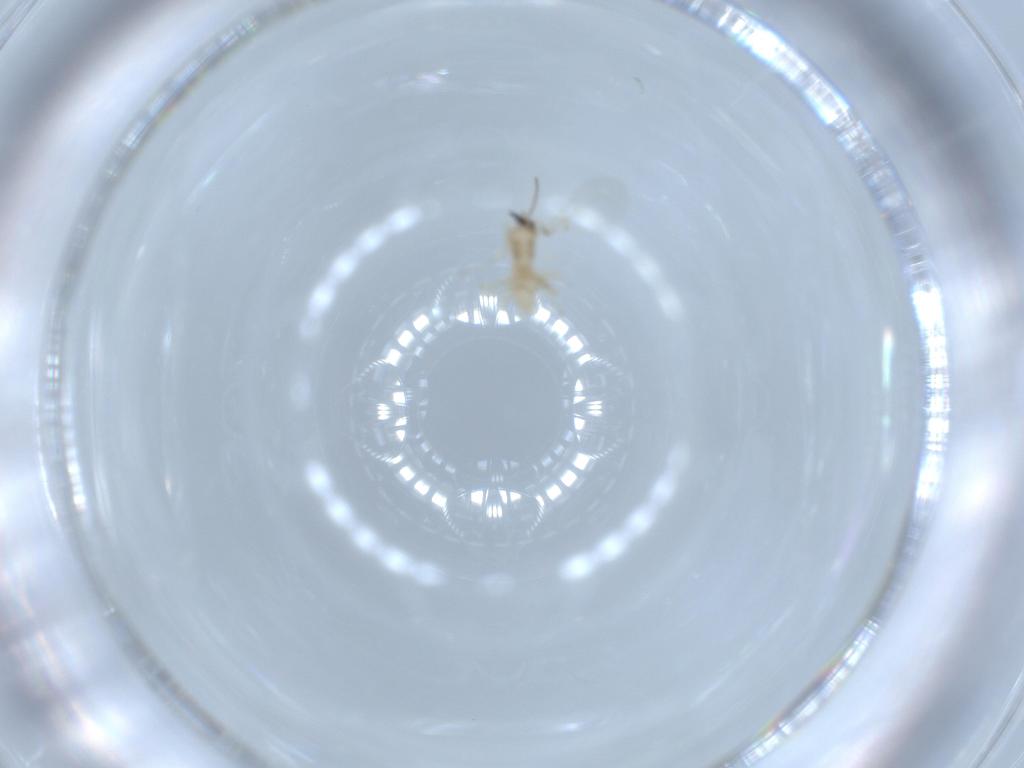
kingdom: Animalia
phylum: Arthropoda
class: Insecta
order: Diptera
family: Cecidomyiidae
